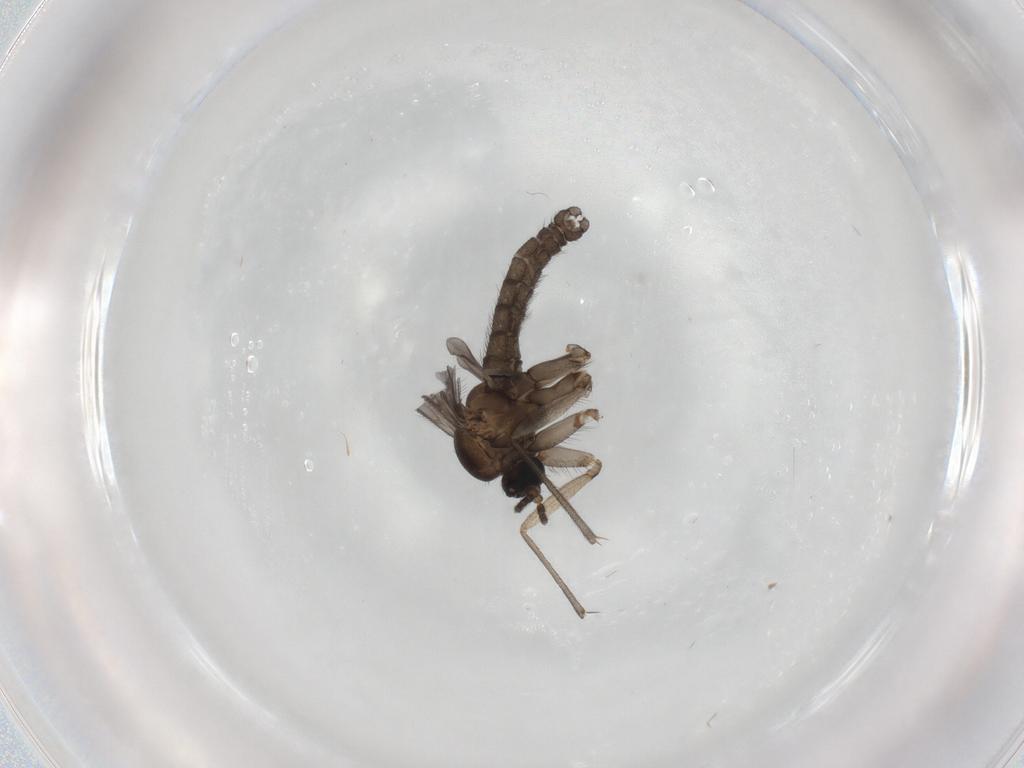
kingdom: Animalia
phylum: Arthropoda
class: Insecta
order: Diptera
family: Sciaridae
